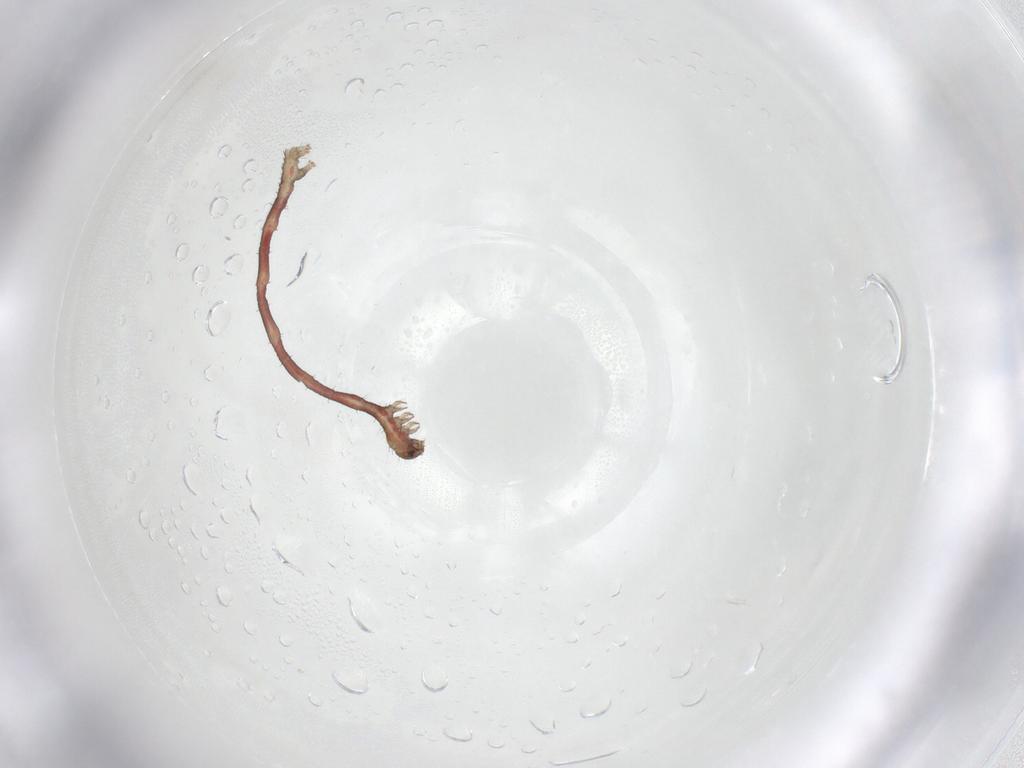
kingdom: Animalia
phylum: Arthropoda
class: Insecta
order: Lepidoptera
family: Geometridae
